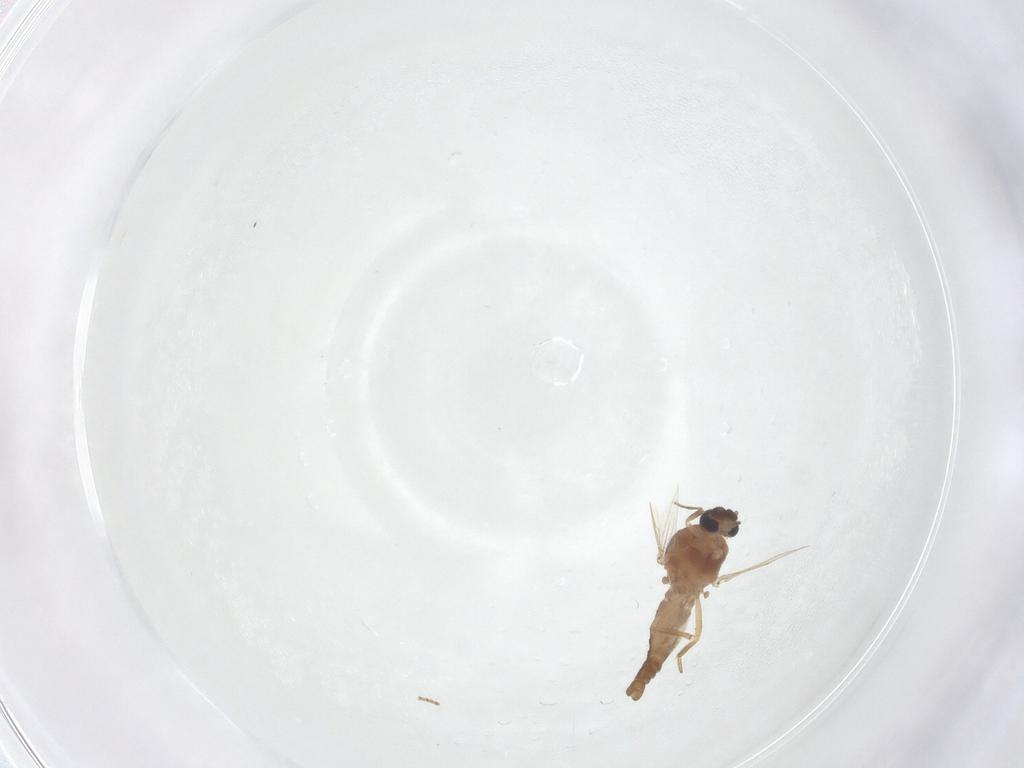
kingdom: Animalia
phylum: Arthropoda
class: Insecta
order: Diptera
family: Ceratopogonidae
